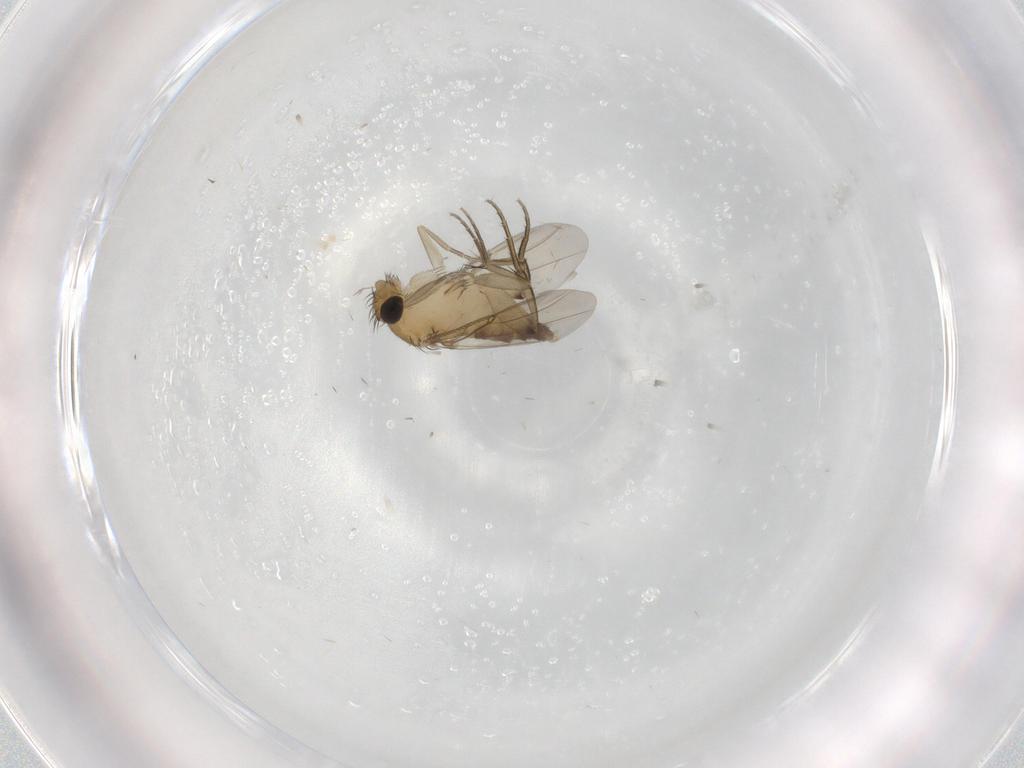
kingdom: Animalia
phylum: Arthropoda
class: Insecta
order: Diptera
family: Phoridae
